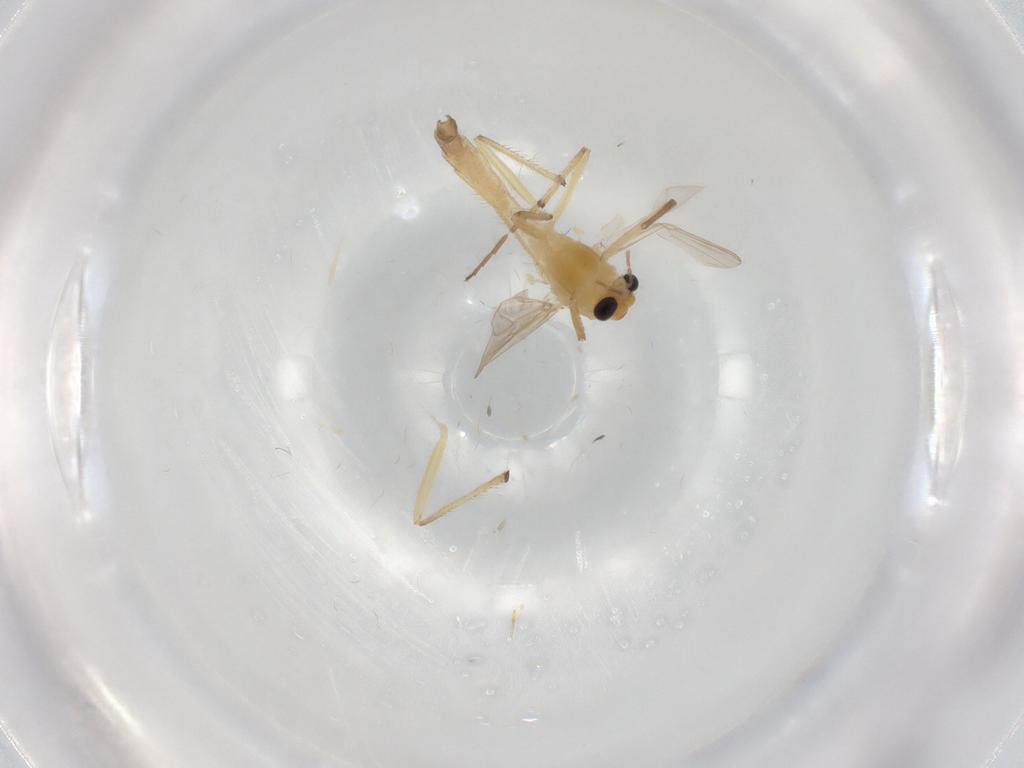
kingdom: Animalia
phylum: Arthropoda
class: Insecta
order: Diptera
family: Chironomidae
